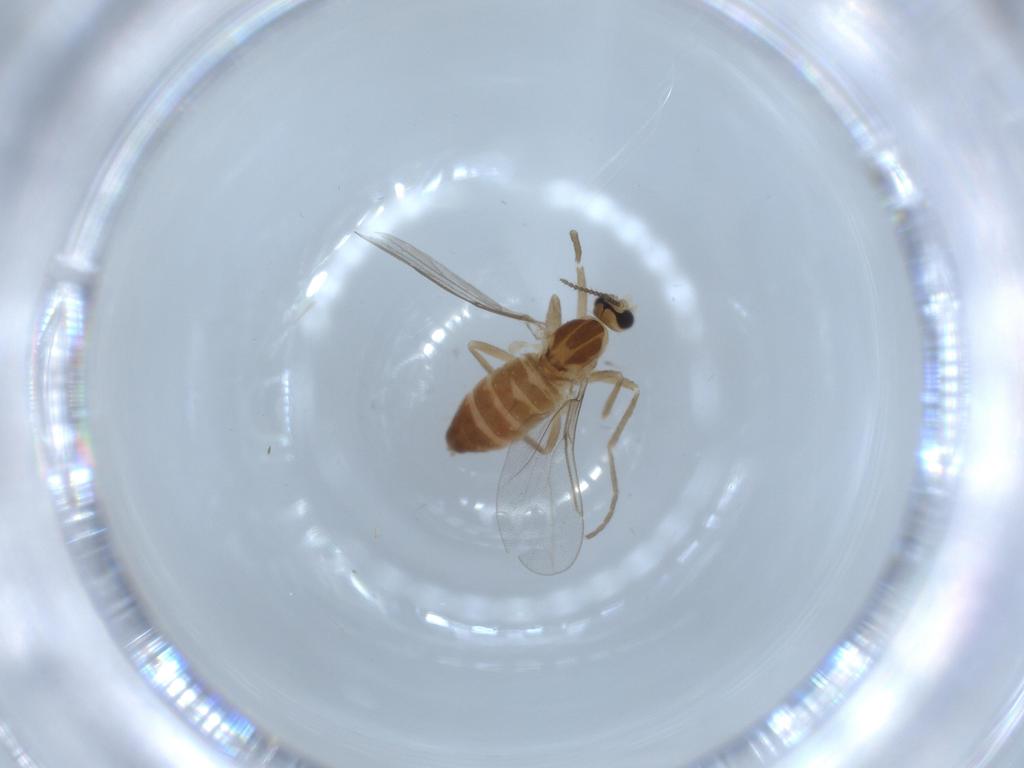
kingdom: Animalia
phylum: Arthropoda
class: Insecta
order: Diptera
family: Cecidomyiidae
